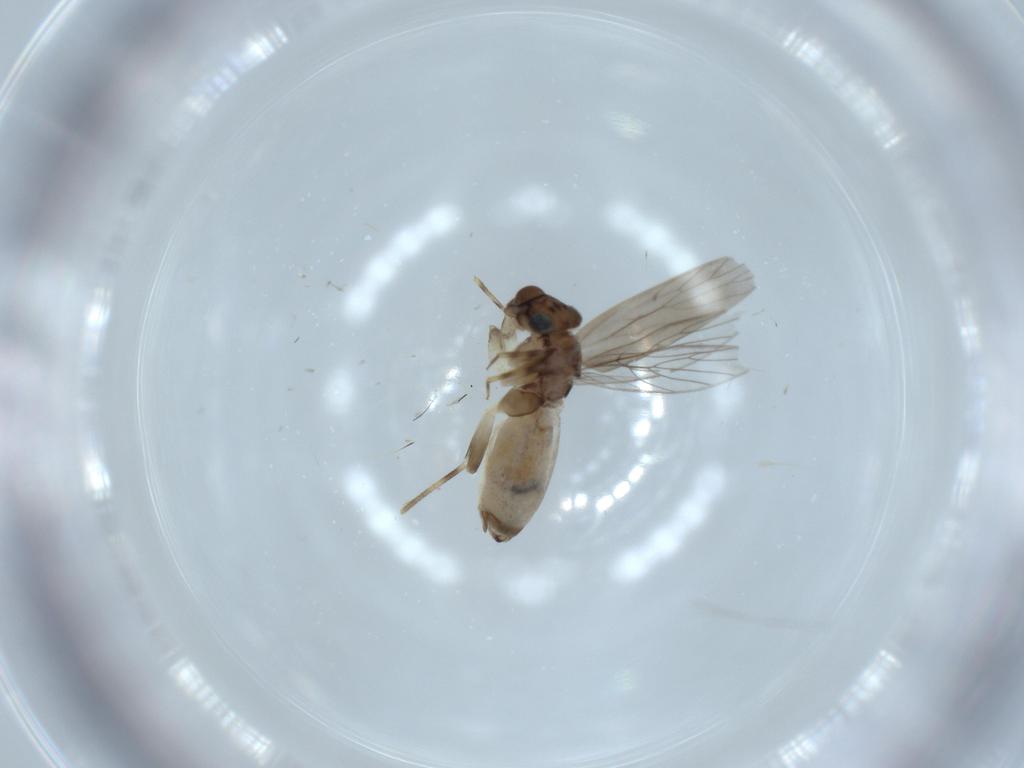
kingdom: Animalia
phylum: Arthropoda
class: Insecta
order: Psocodea
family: Lepidopsocidae
